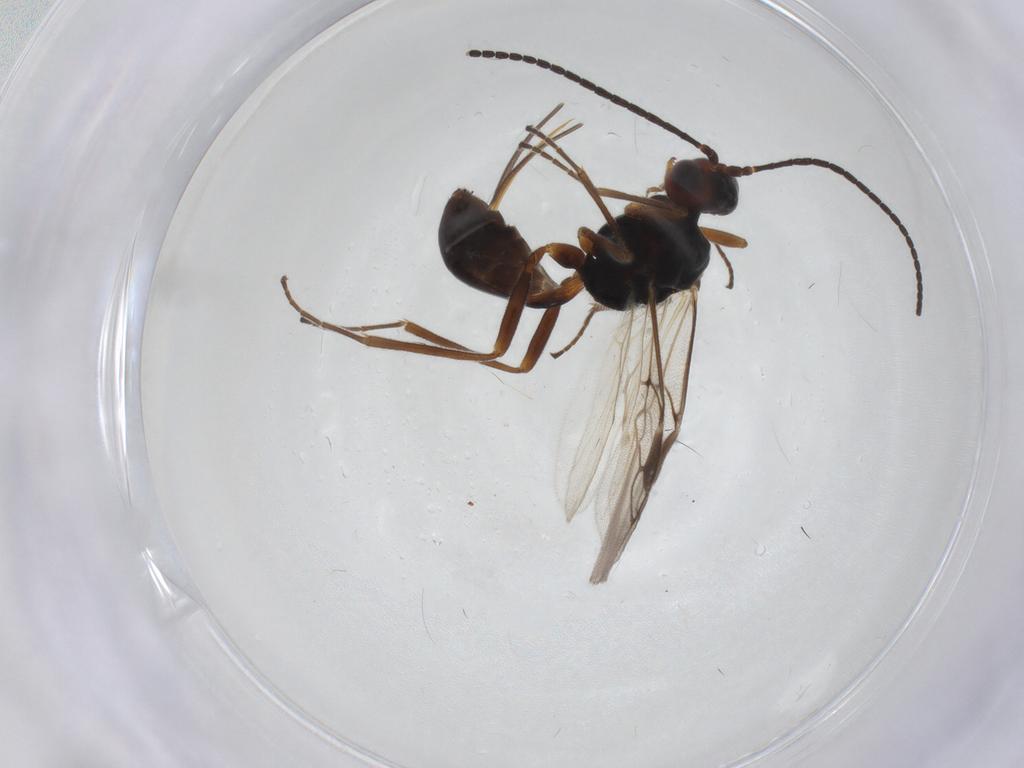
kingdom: Animalia
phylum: Arthropoda
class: Insecta
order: Hymenoptera
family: Braconidae
